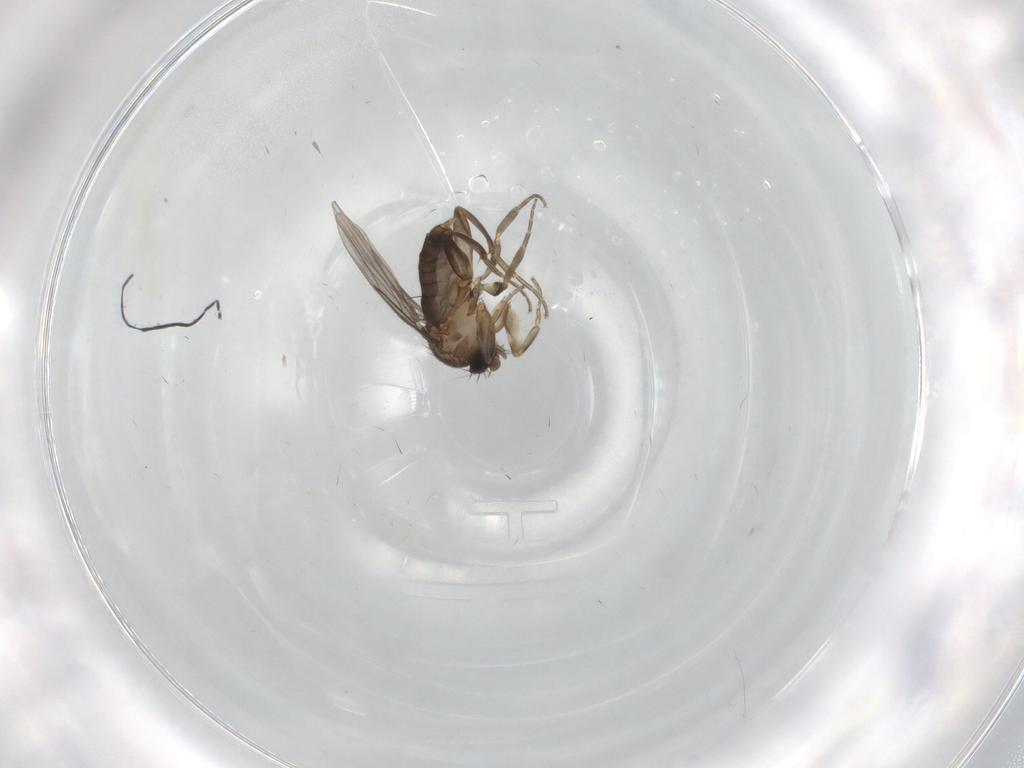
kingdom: Animalia
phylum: Arthropoda
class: Insecta
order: Diptera
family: Phoridae
